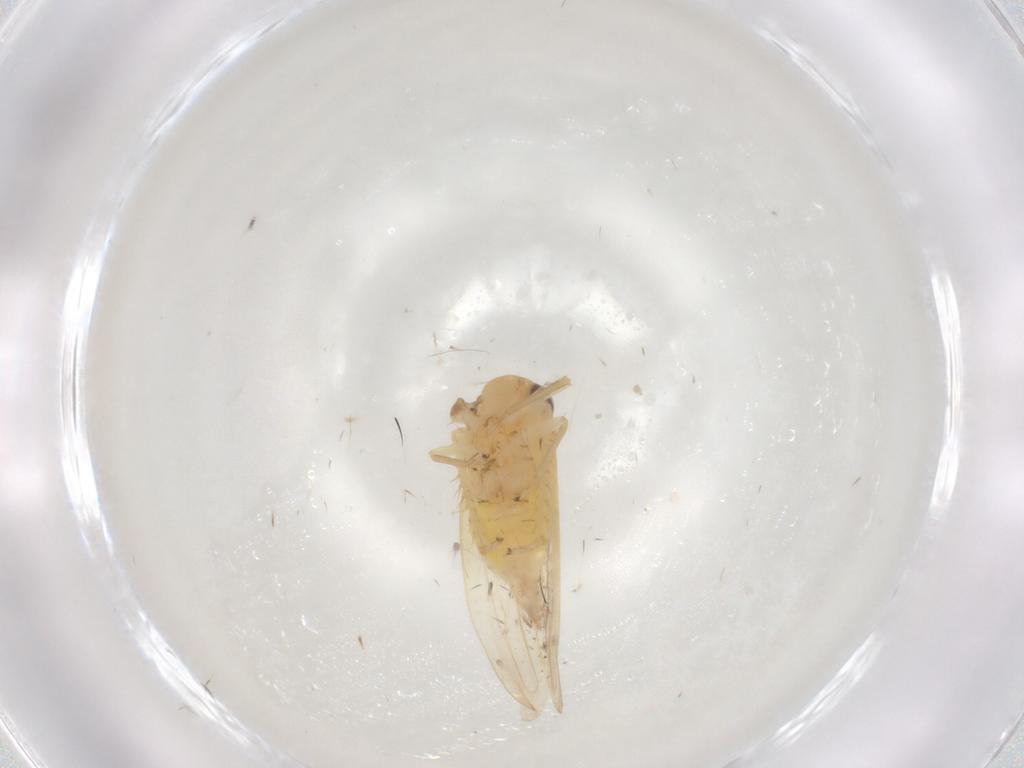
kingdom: Animalia
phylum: Arthropoda
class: Insecta
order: Hemiptera
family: Cicadellidae
